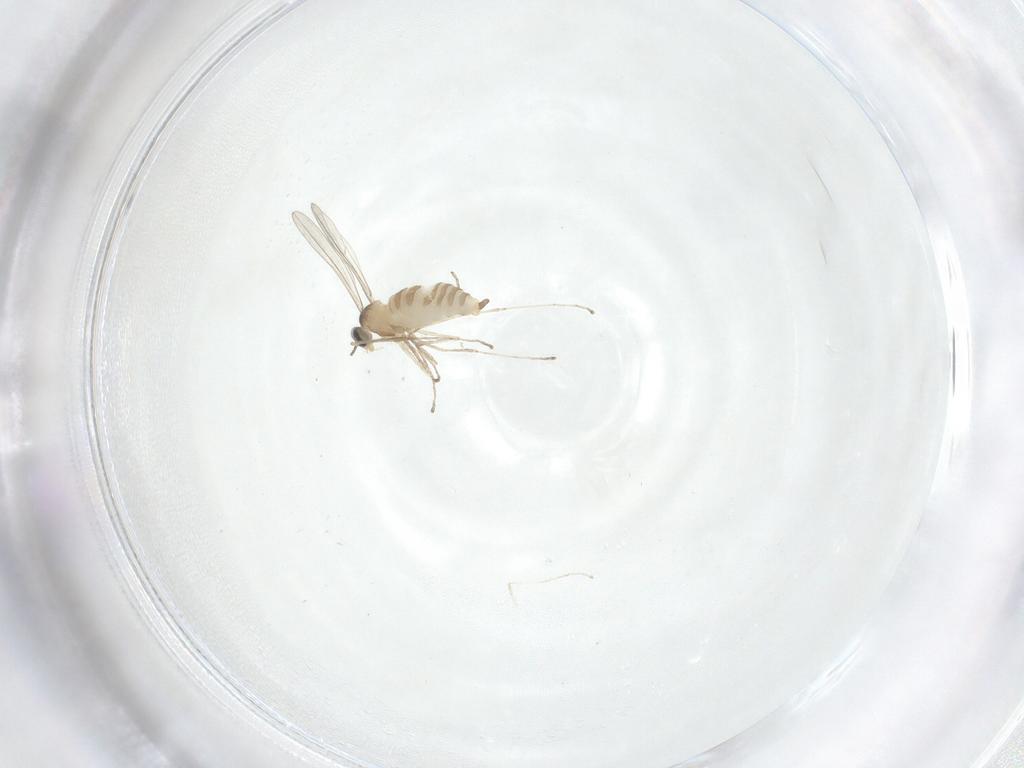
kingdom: Animalia
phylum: Arthropoda
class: Insecta
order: Diptera
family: Cecidomyiidae
